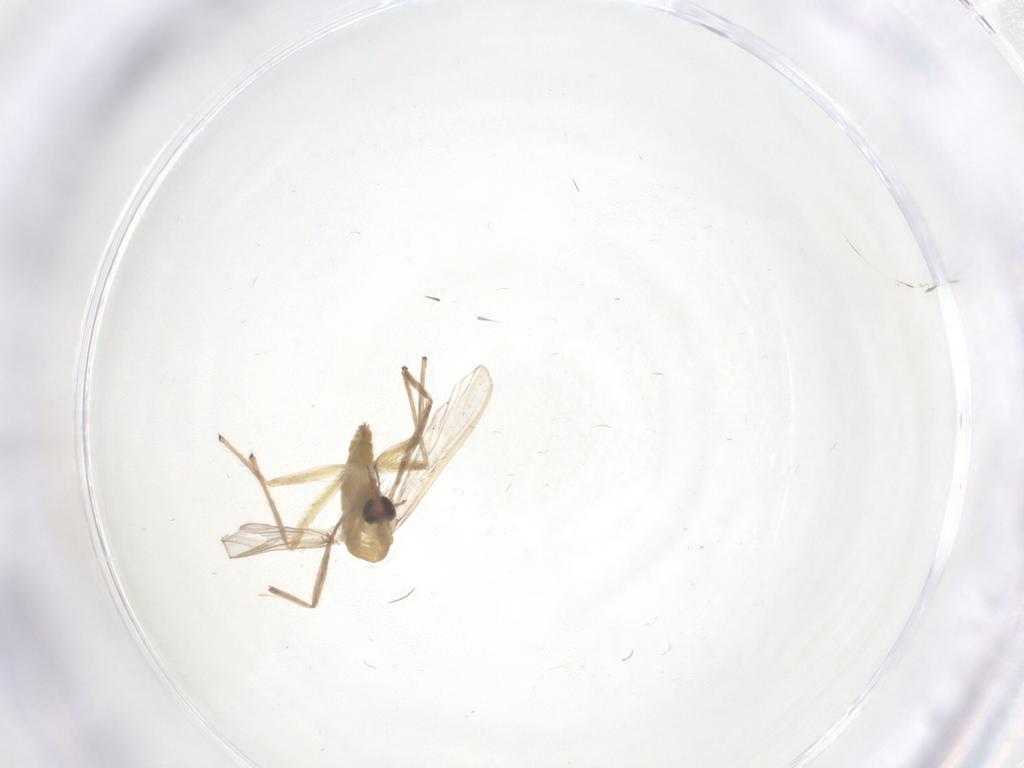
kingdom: Animalia
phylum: Arthropoda
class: Insecta
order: Diptera
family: Chironomidae
